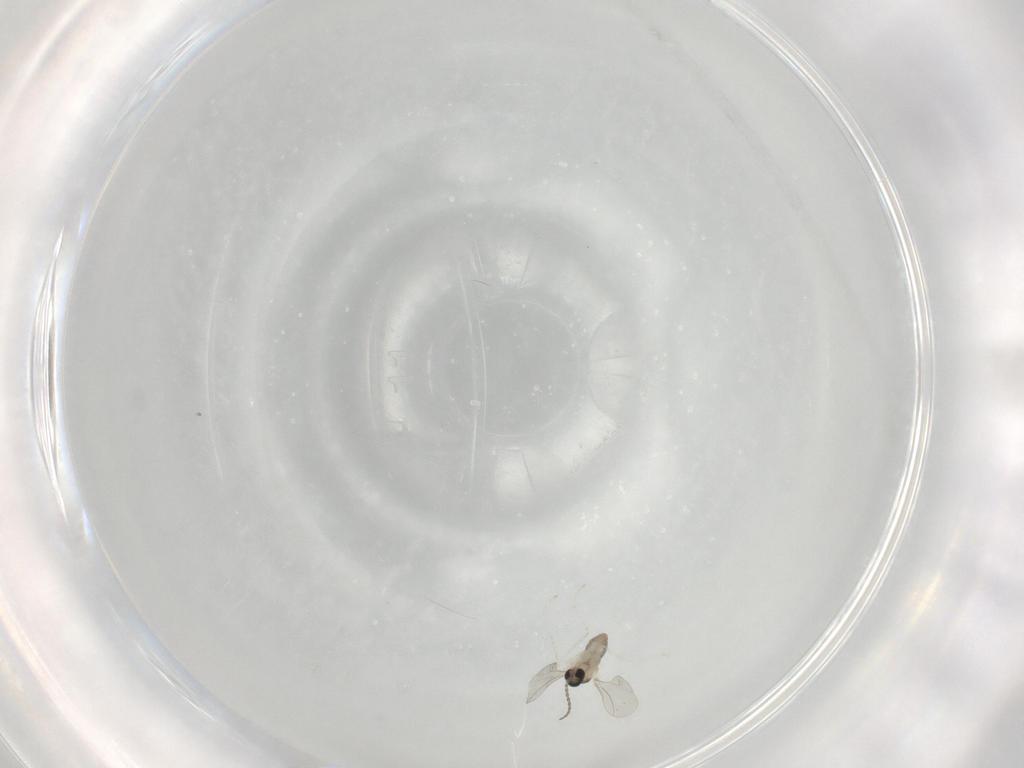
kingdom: Animalia
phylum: Arthropoda
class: Insecta
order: Diptera
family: Cecidomyiidae
